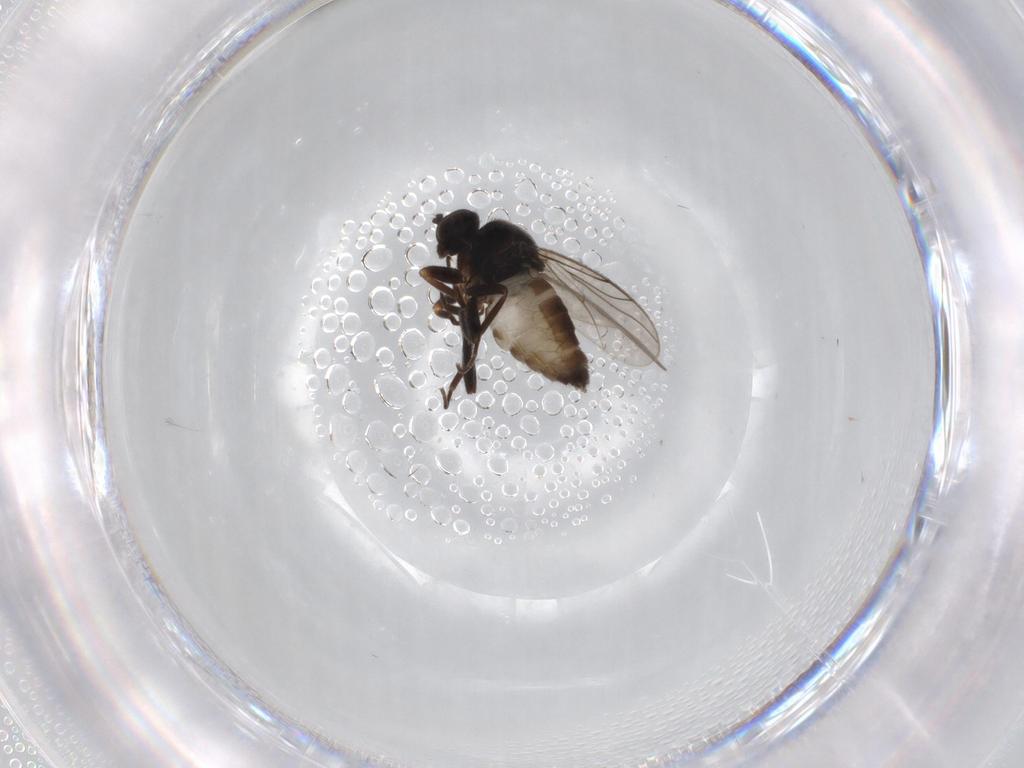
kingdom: Animalia
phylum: Arthropoda
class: Insecta
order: Diptera
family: Hybotidae
